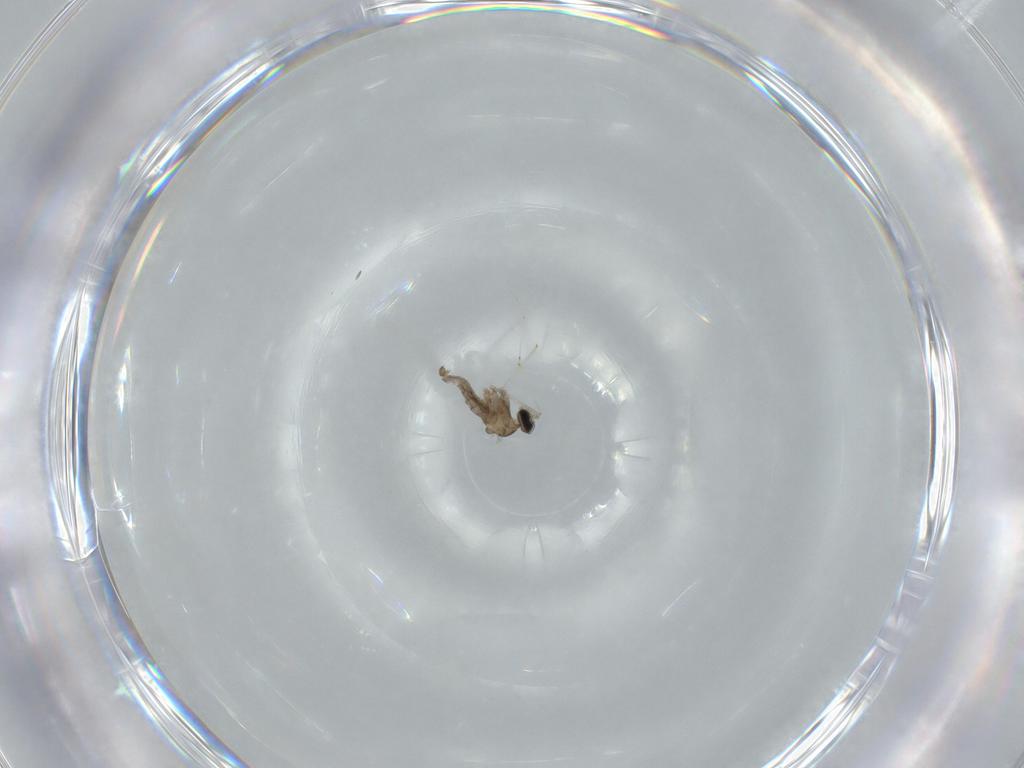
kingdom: Animalia
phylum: Arthropoda
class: Insecta
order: Diptera
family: Cecidomyiidae
